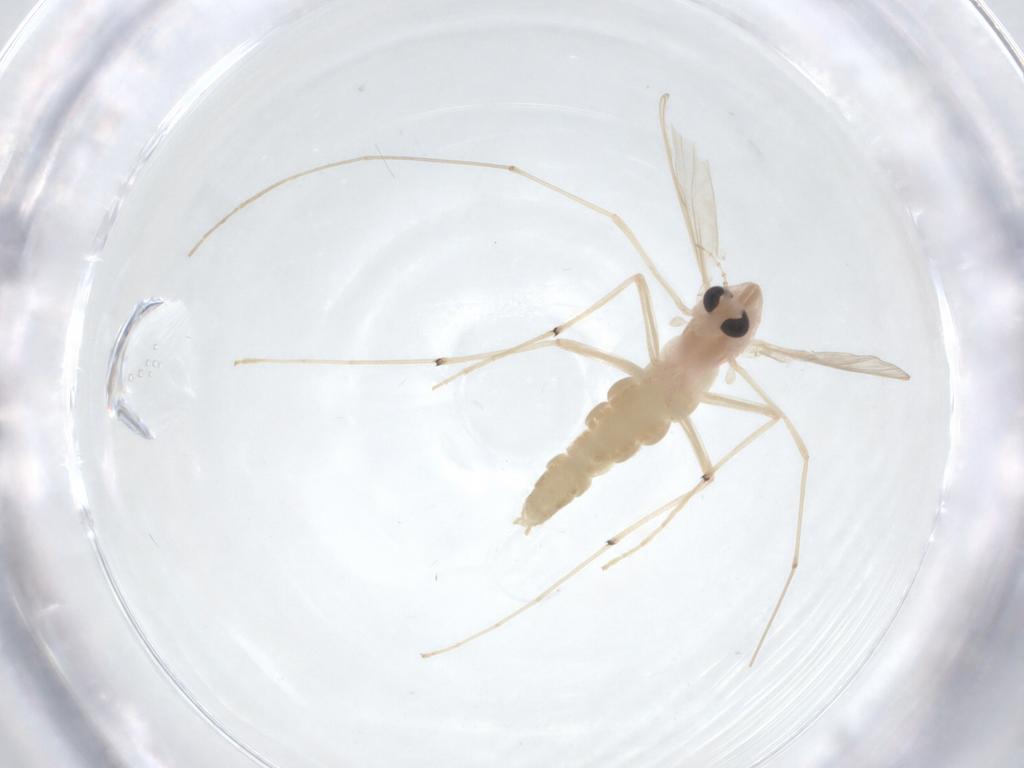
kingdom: Animalia
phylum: Arthropoda
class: Insecta
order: Diptera
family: Chironomidae
